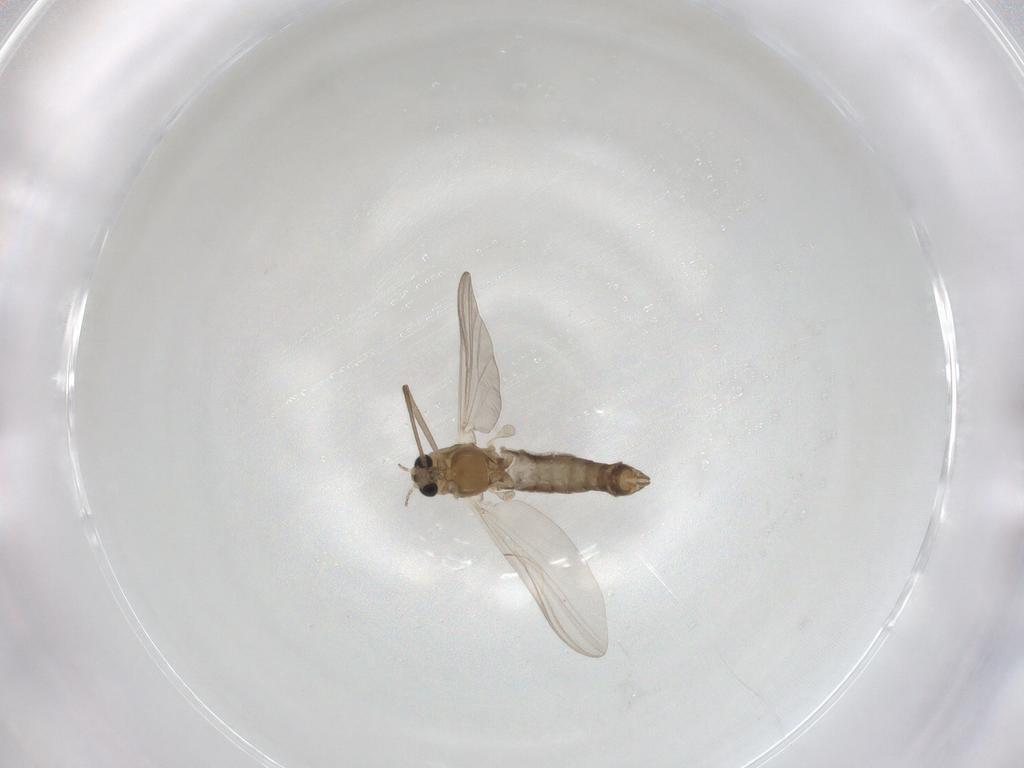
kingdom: Animalia
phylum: Arthropoda
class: Insecta
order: Diptera
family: Chironomidae
